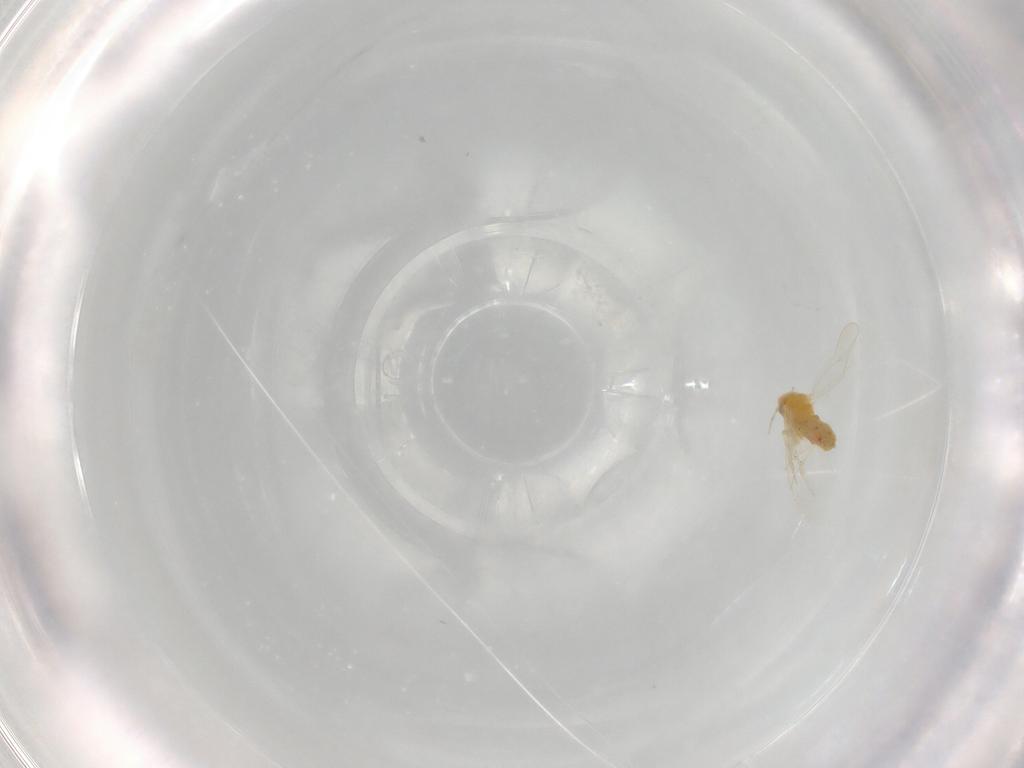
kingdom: Animalia
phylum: Arthropoda
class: Insecta
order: Hemiptera
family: Aleyrodidae
